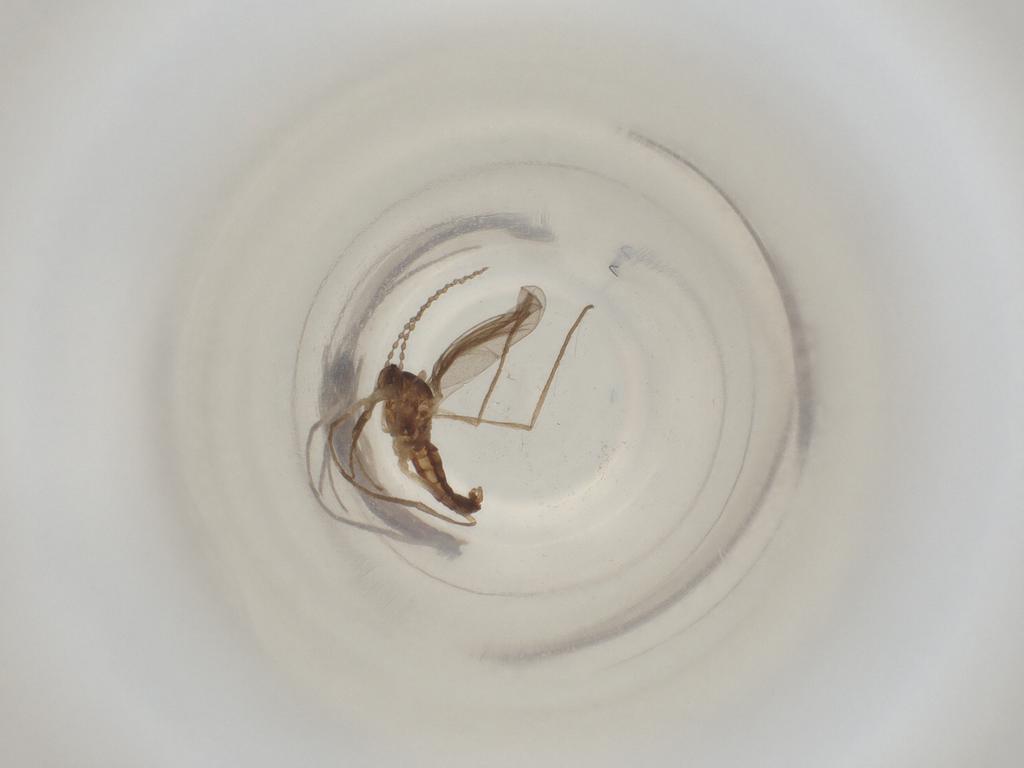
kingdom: Animalia
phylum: Arthropoda
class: Insecta
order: Diptera
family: Cecidomyiidae
